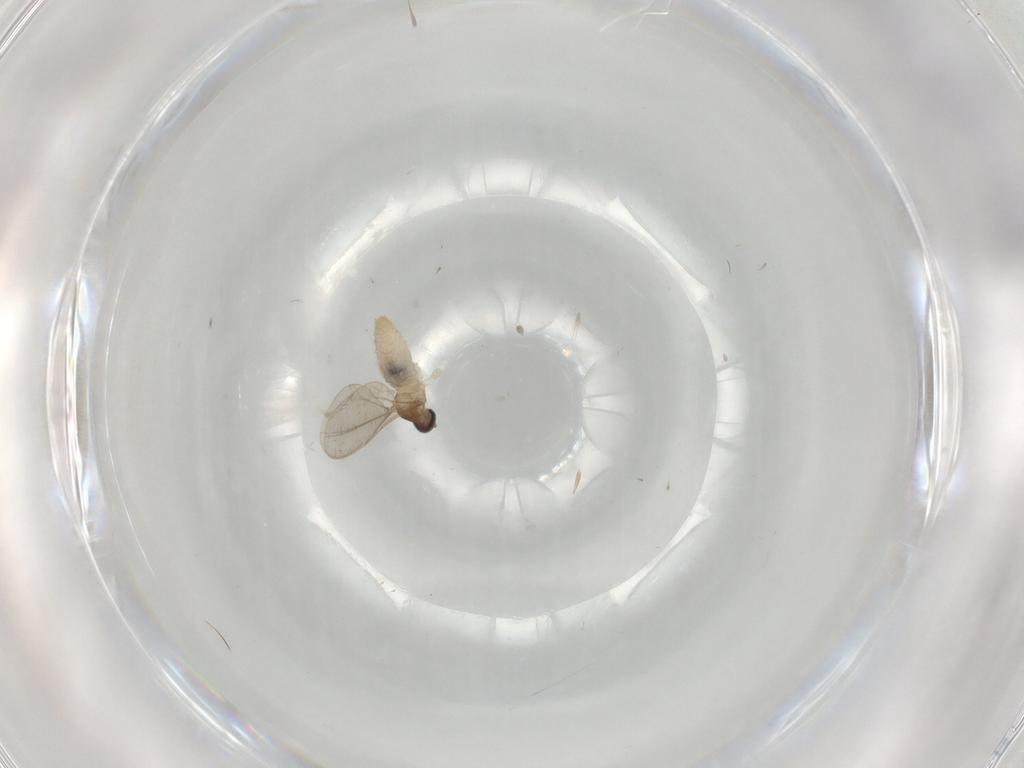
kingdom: Animalia
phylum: Arthropoda
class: Insecta
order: Diptera
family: Cecidomyiidae
